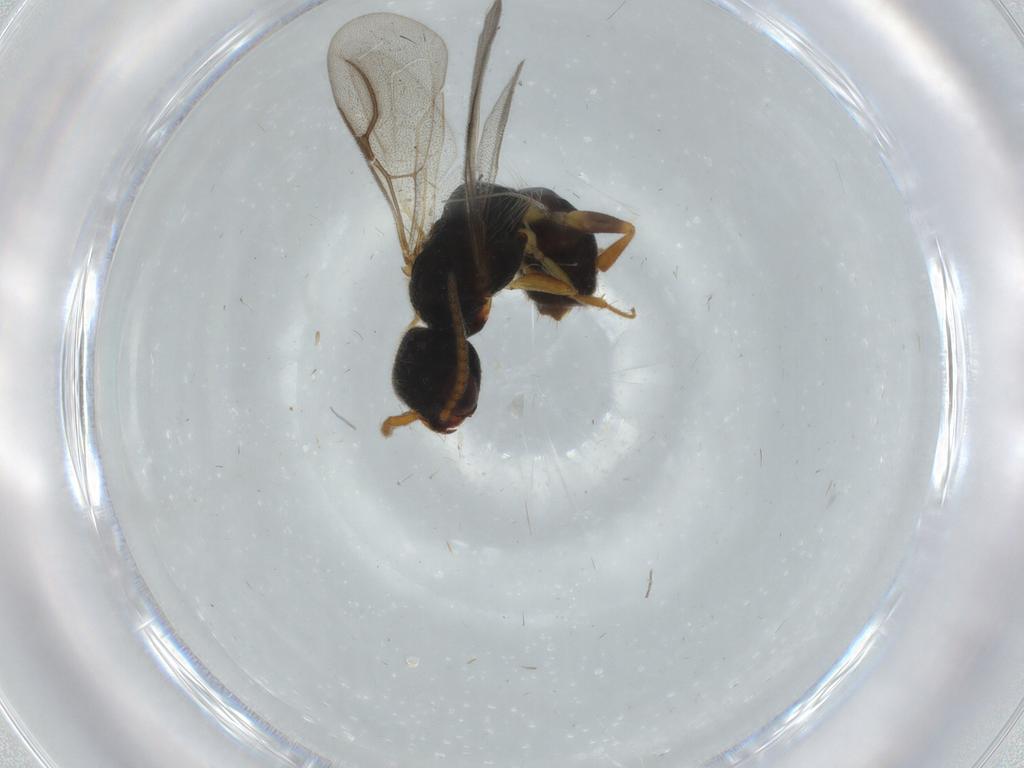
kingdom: Animalia
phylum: Arthropoda
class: Insecta
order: Hymenoptera
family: Bethylidae
